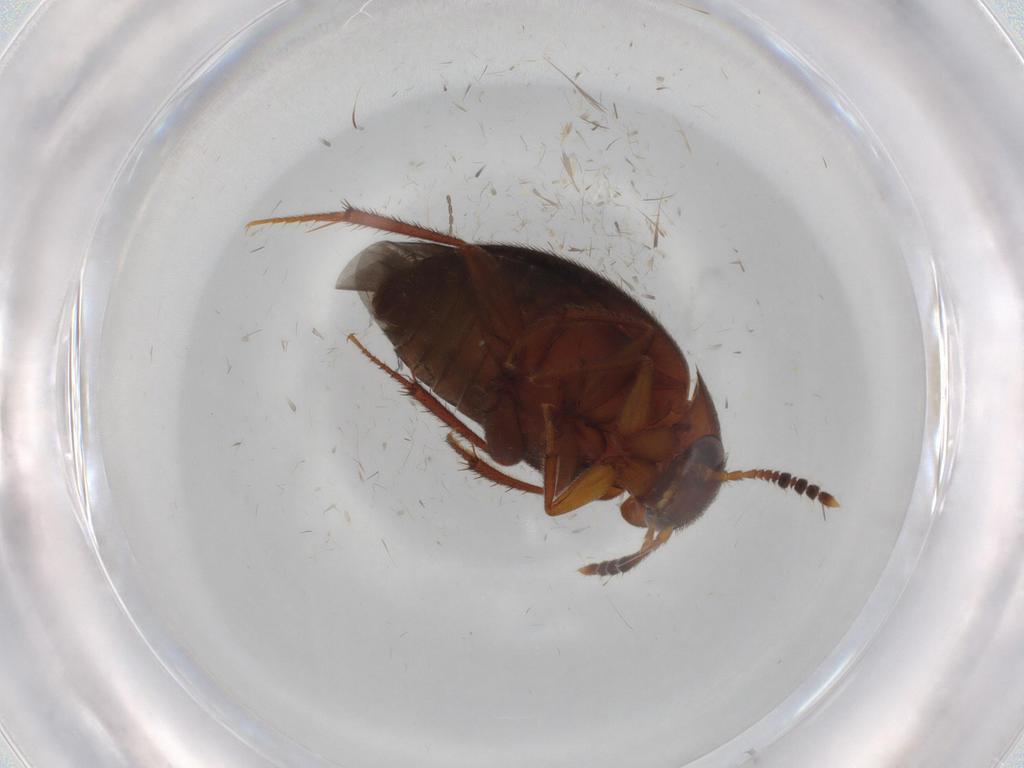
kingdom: Animalia
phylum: Arthropoda
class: Insecta
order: Coleoptera
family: Leiodidae
